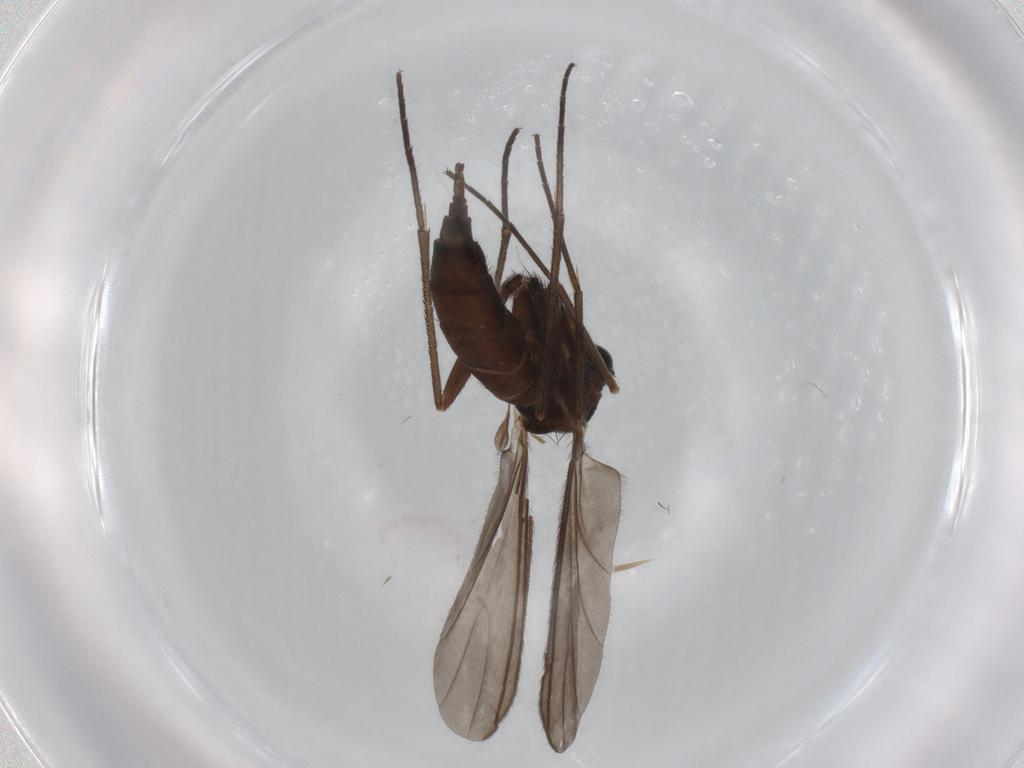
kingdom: Animalia
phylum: Arthropoda
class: Insecta
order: Diptera
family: Sciaridae
